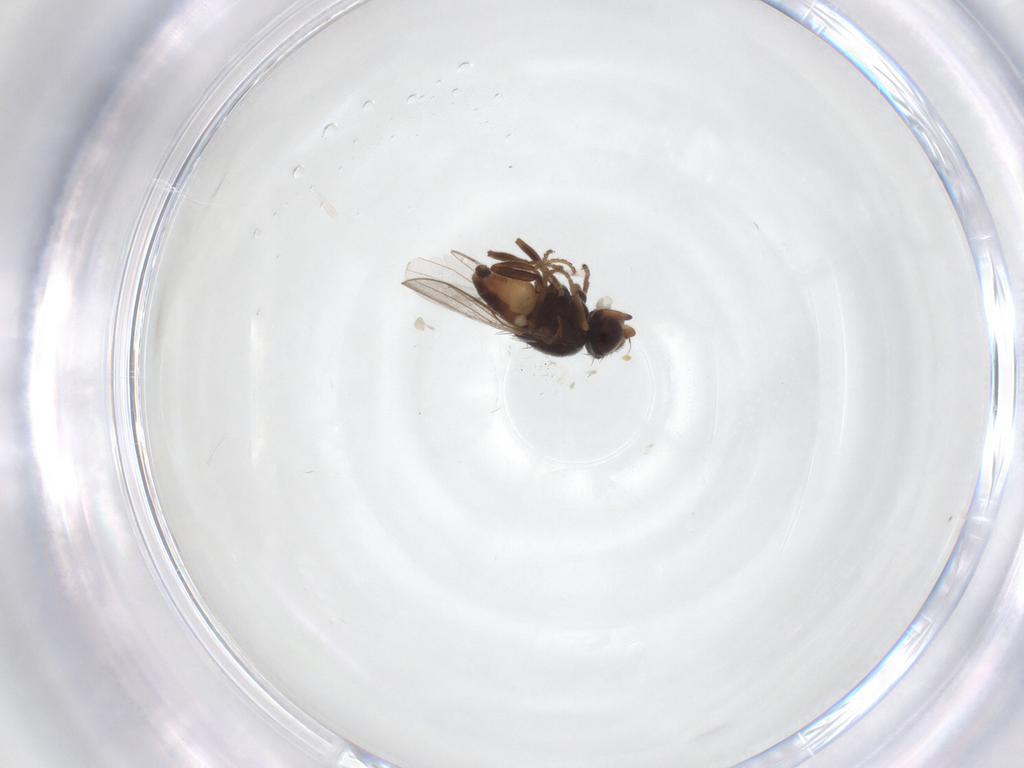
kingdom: Animalia
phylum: Arthropoda
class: Insecta
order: Diptera
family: Chloropidae
